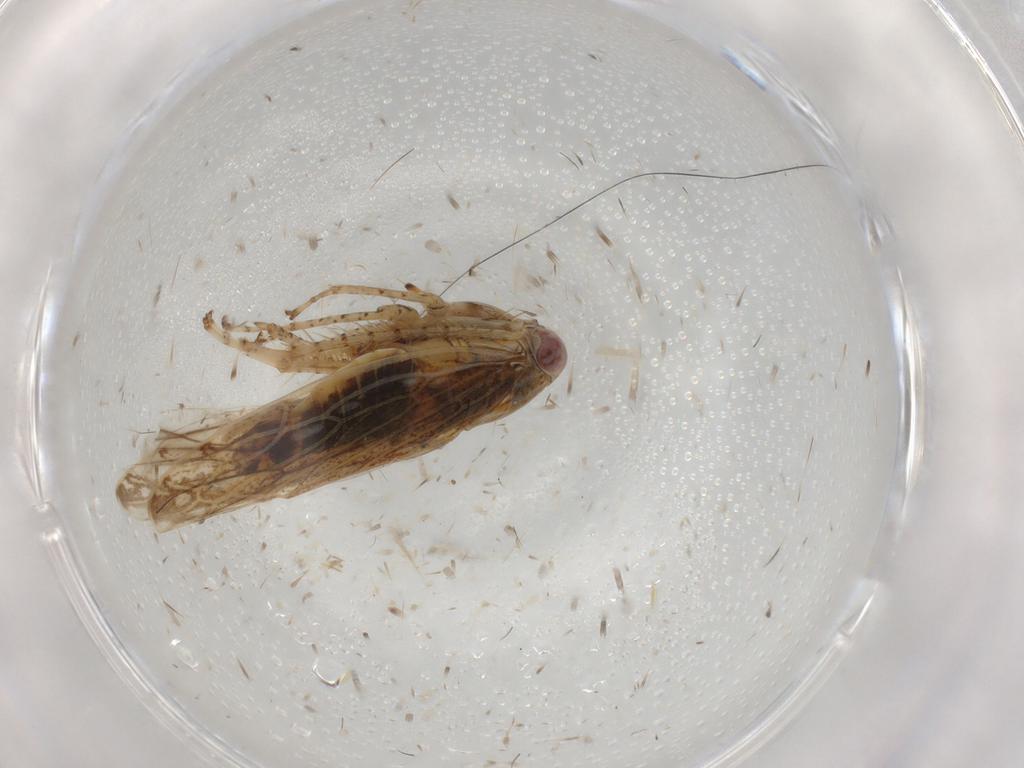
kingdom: Animalia
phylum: Arthropoda
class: Insecta
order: Hemiptera
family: Cicadellidae
